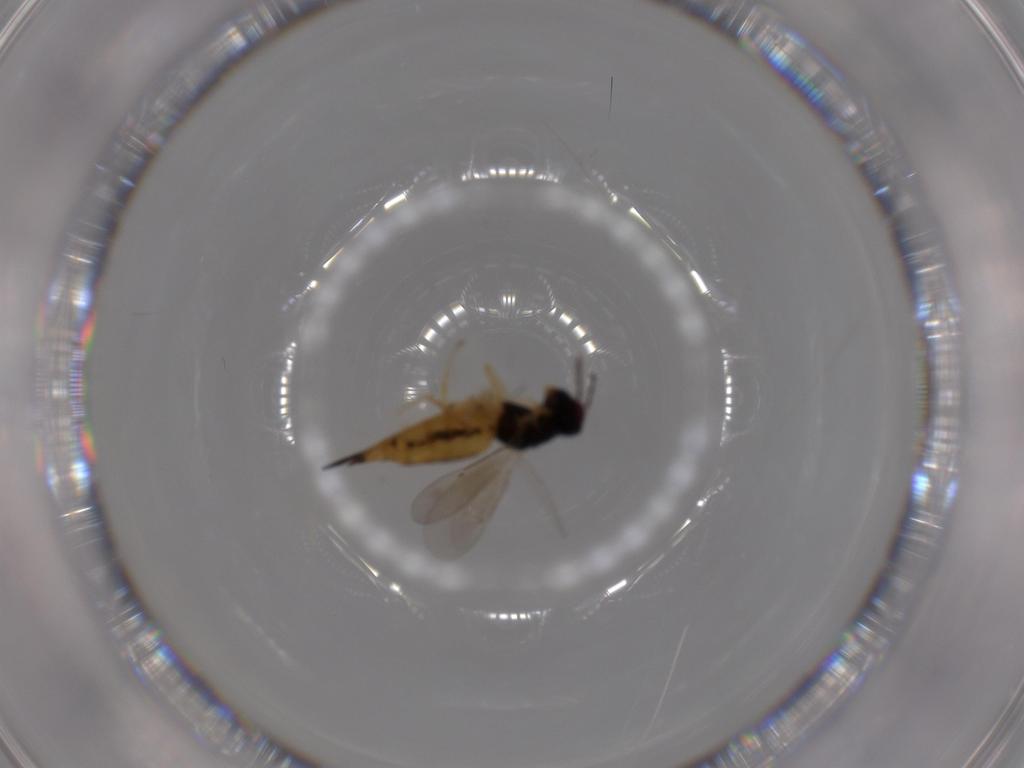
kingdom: Animalia
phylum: Arthropoda
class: Insecta
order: Hymenoptera
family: Eulophidae
